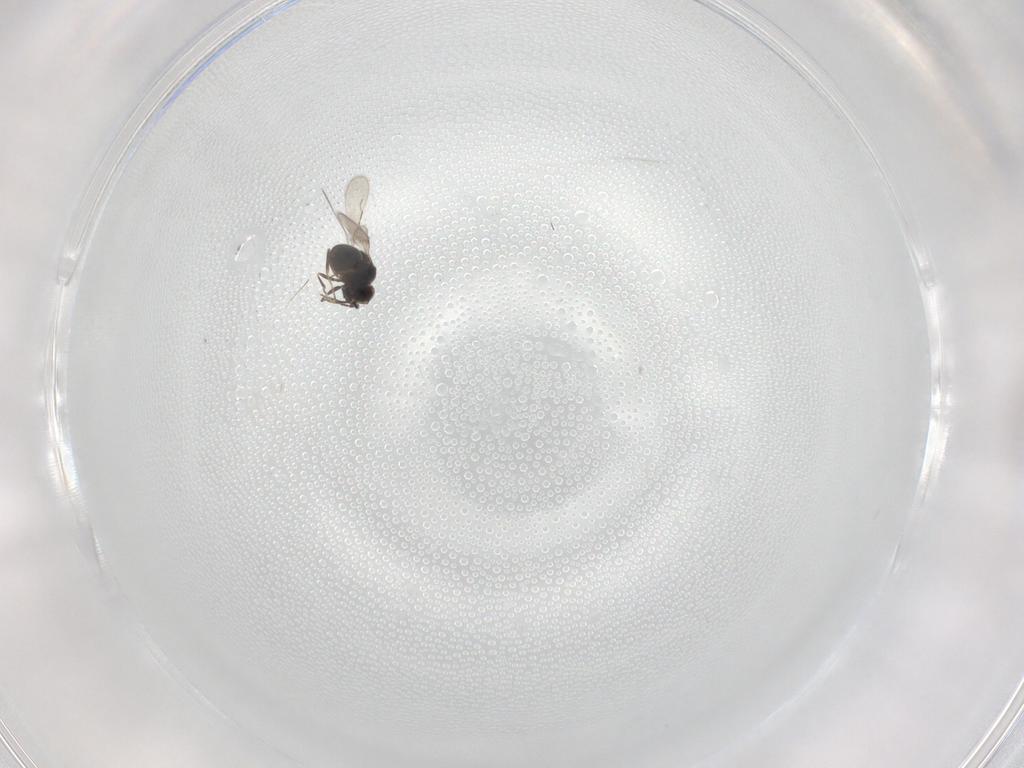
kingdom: Animalia
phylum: Arthropoda
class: Insecta
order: Hymenoptera
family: Ceraphronidae
